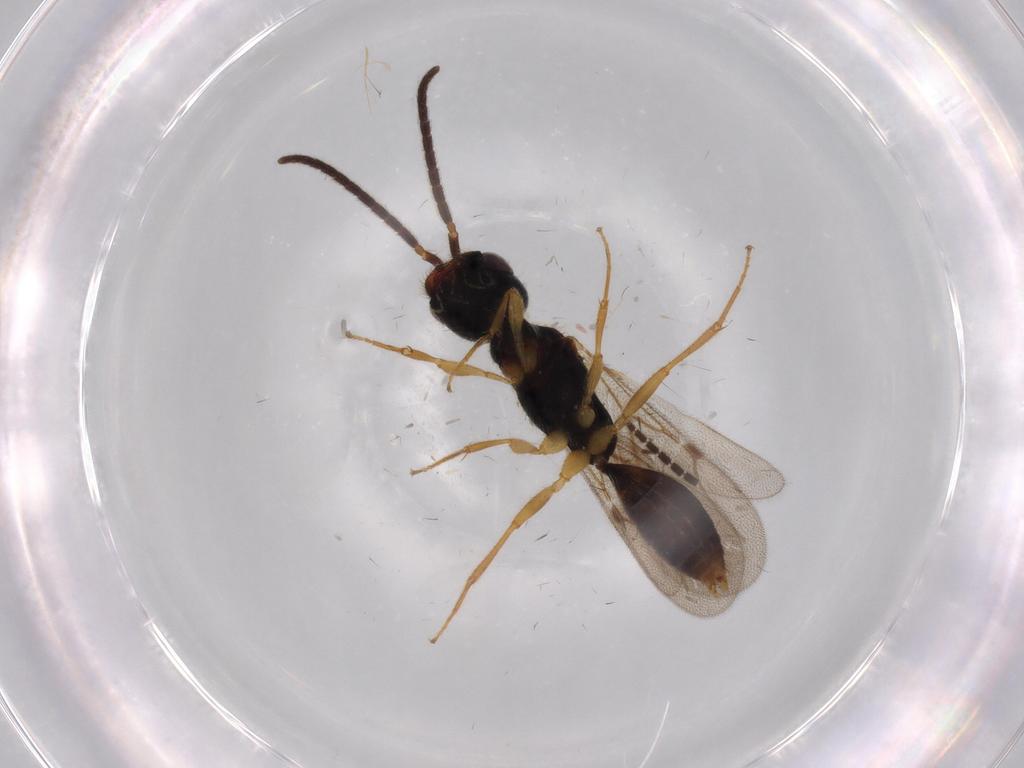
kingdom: Animalia
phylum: Arthropoda
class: Insecta
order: Hymenoptera
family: Bethylidae
